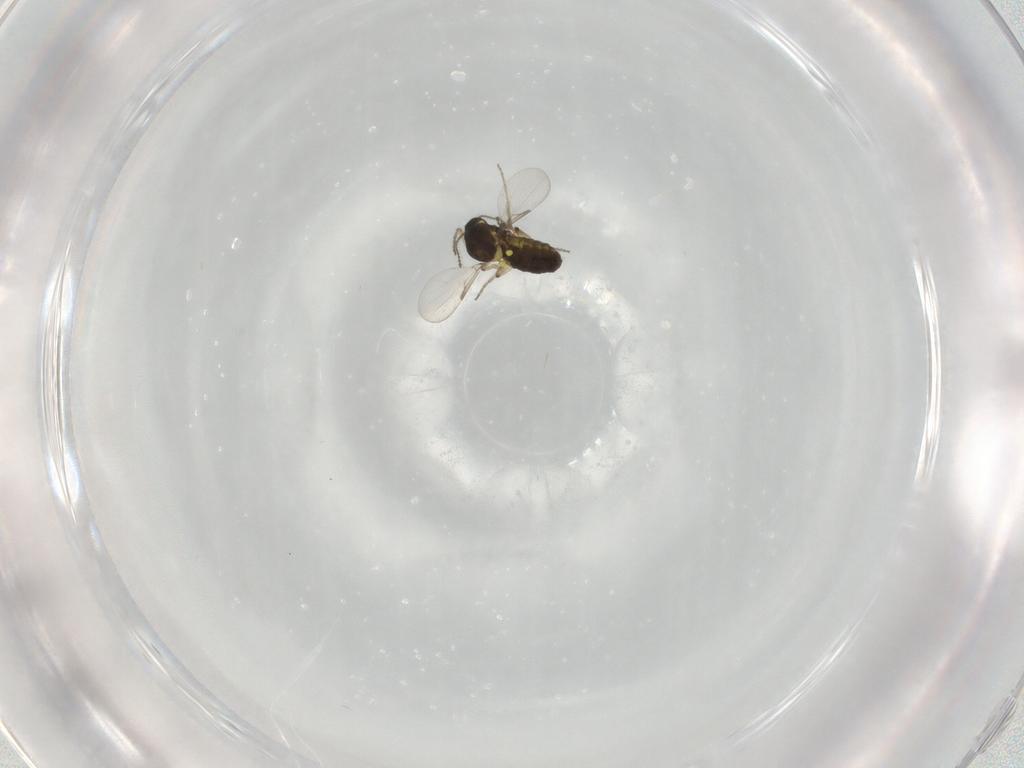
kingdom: Animalia
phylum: Arthropoda
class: Insecta
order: Diptera
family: Ceratopogonidae
